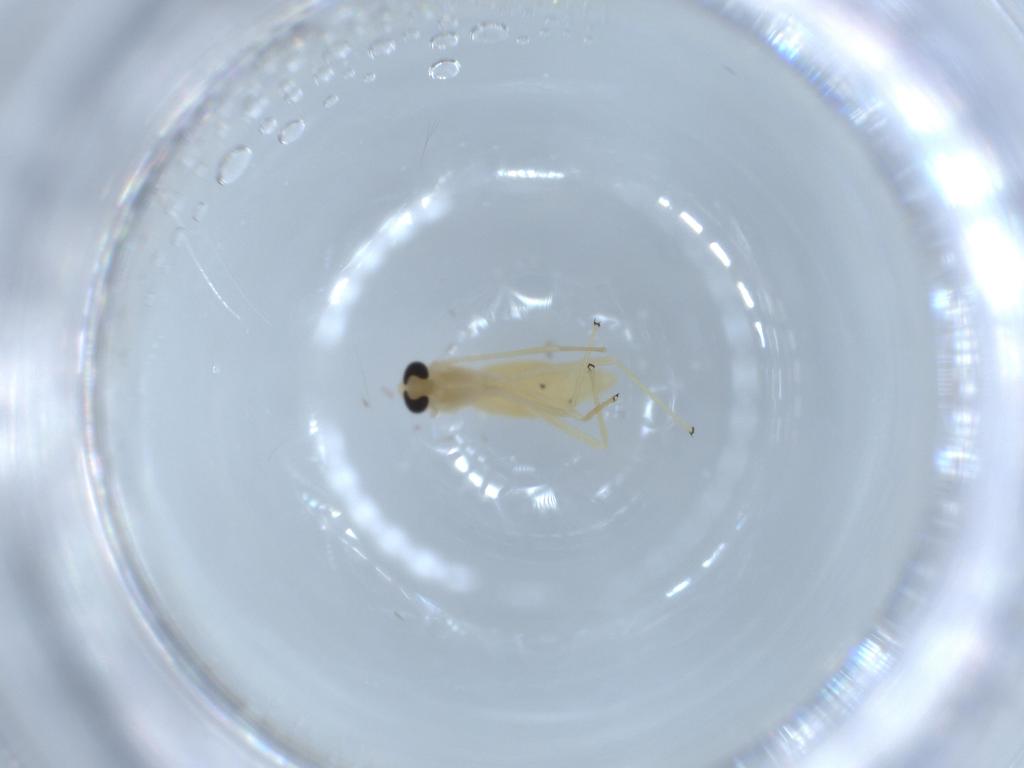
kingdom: Animalia
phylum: Arthropoda
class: Insecta
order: Diptera
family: Chironomidae
